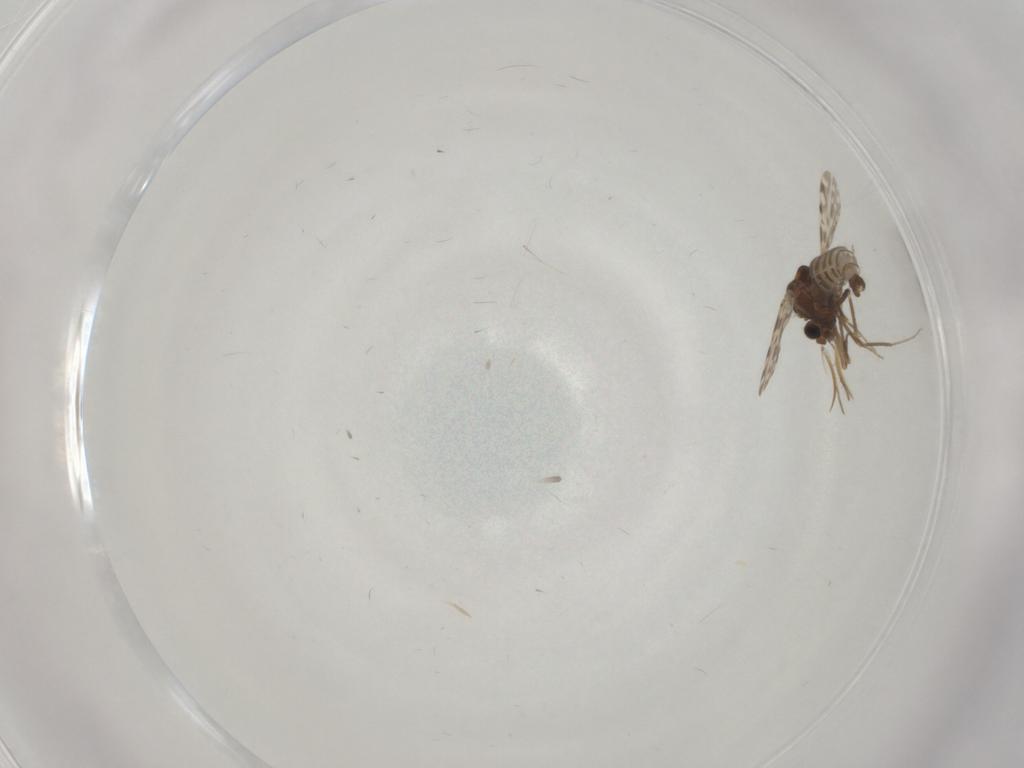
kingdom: Animalia
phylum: Arthropoda
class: Insecta
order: Diptera
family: Ceratopogonidae
